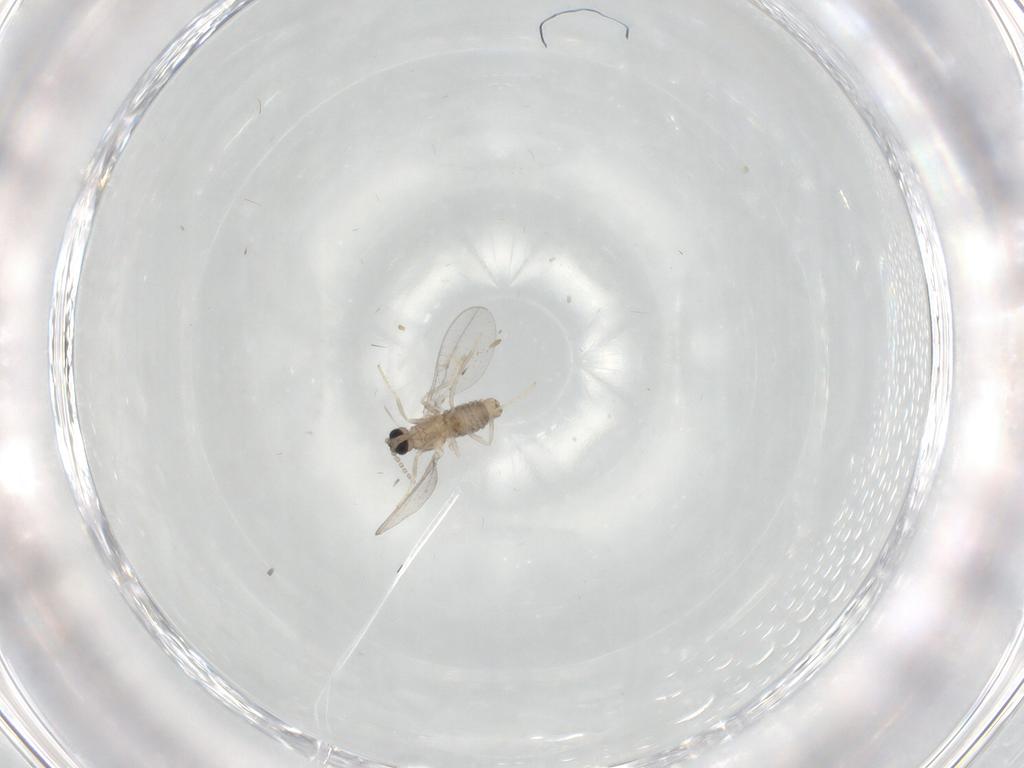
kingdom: Animalia
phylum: Arthropoda
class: Insecta
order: Diptera
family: Cecidomyiidae
